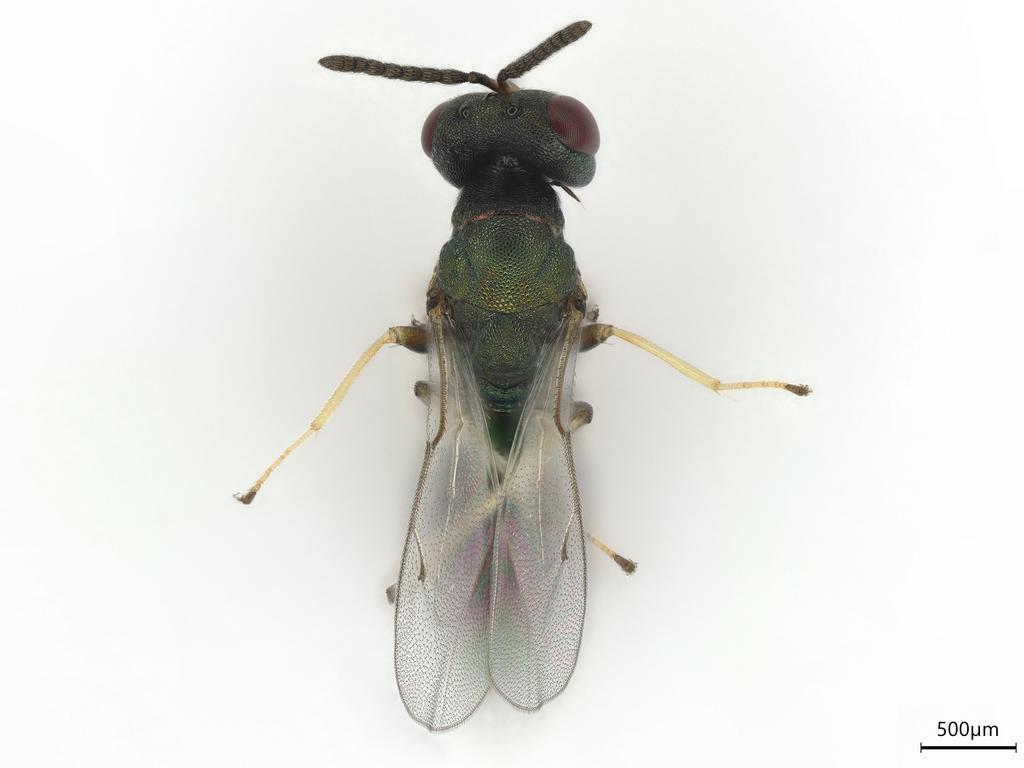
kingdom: Animalia
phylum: Arthropoda
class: Insecta
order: Hymenoptera
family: Pteromalidae
